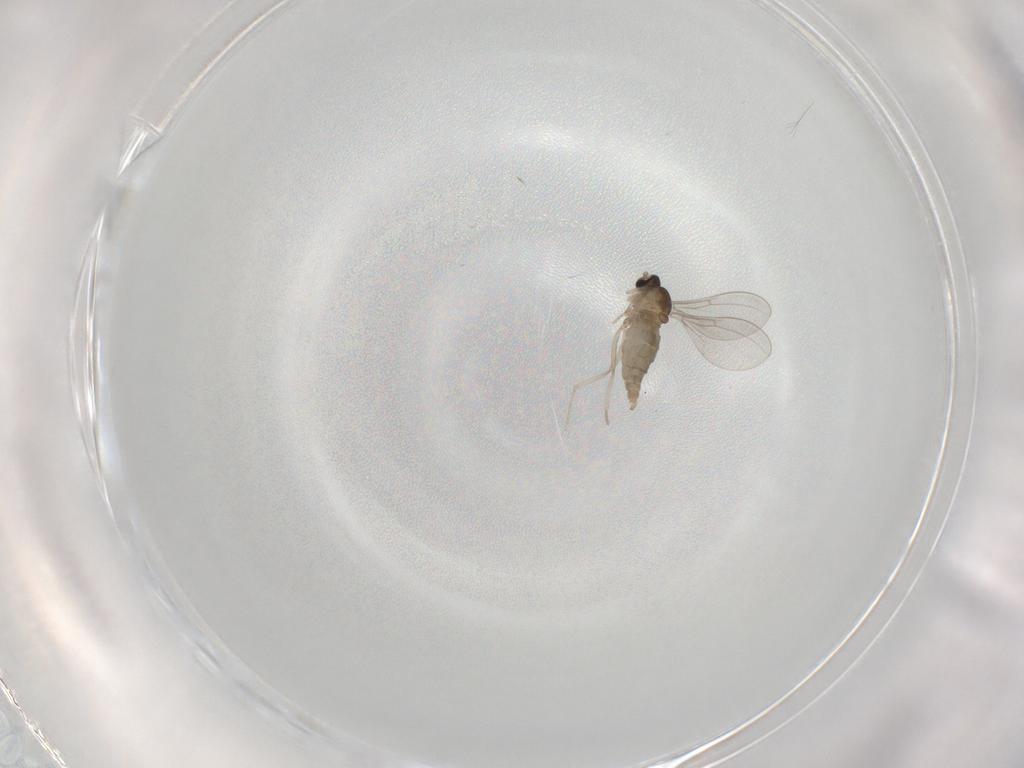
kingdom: Animalia
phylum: Arthropoda
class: Insecta
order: Diptera
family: Cecidomyiidae
